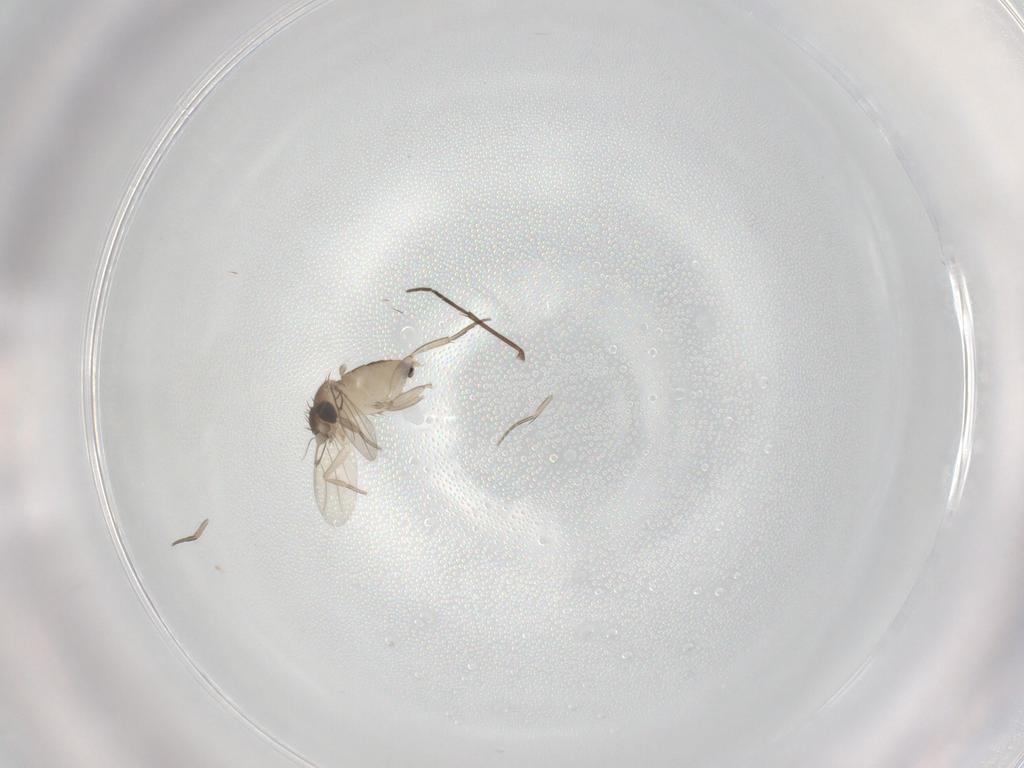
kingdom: Animalia
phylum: Arthropoda
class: Insecta
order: Diptera
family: Phoridae
